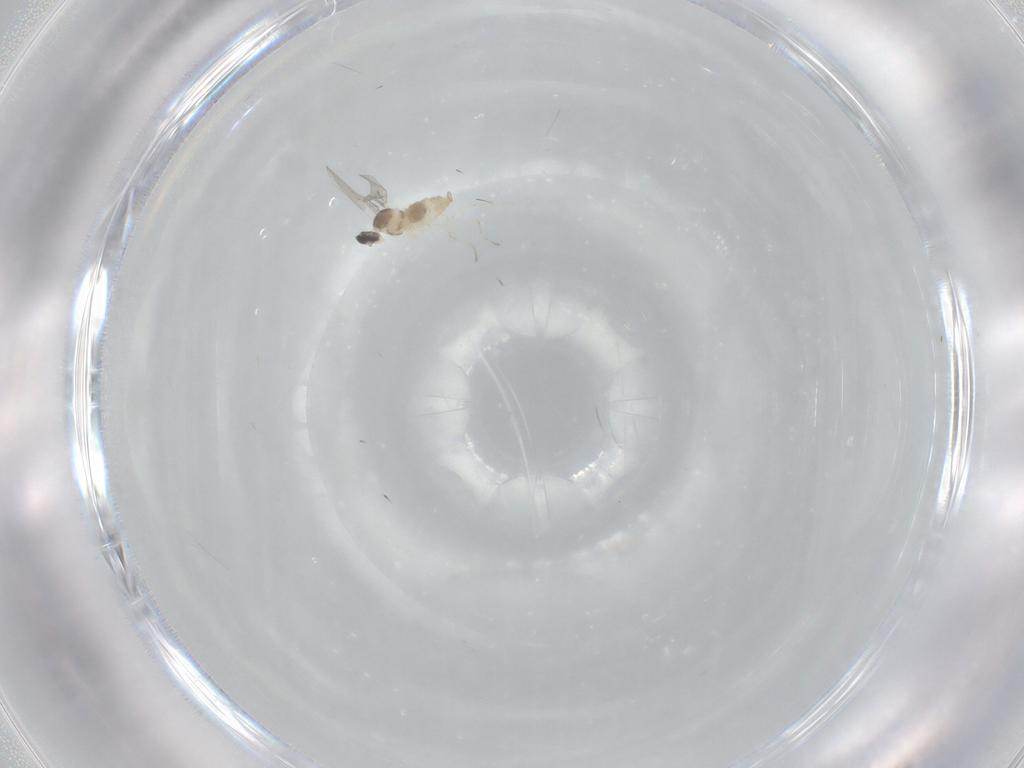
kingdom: Animalia
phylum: Arthropoda
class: Insecta
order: Diptera
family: Cecidomyiidae
